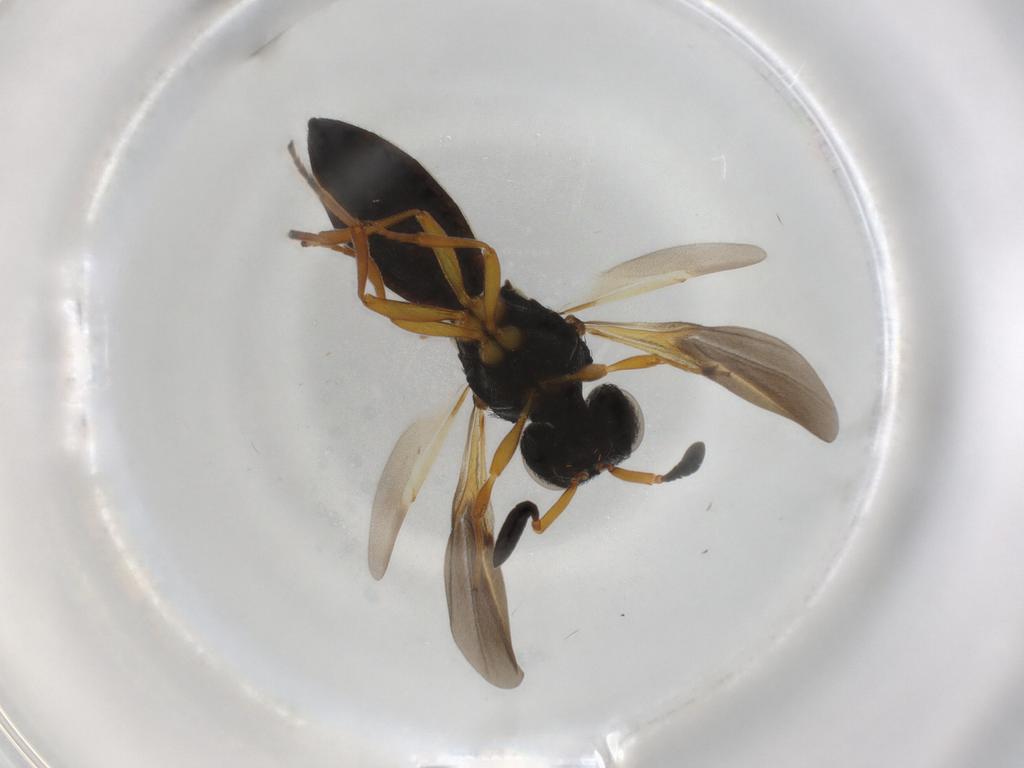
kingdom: Animalia
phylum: Arthropoda
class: Insecta
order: Hymenoptera
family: Scelionidae
